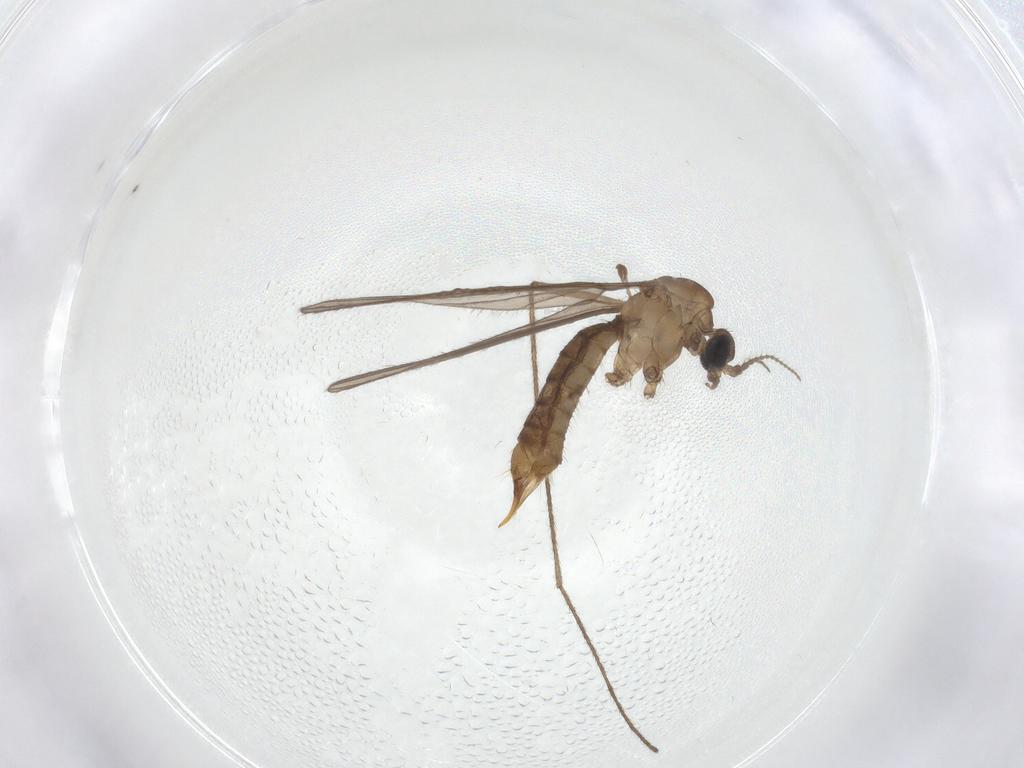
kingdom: Animalia
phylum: Arthropoda
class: Insecta
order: Diptera
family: Limoniidae
